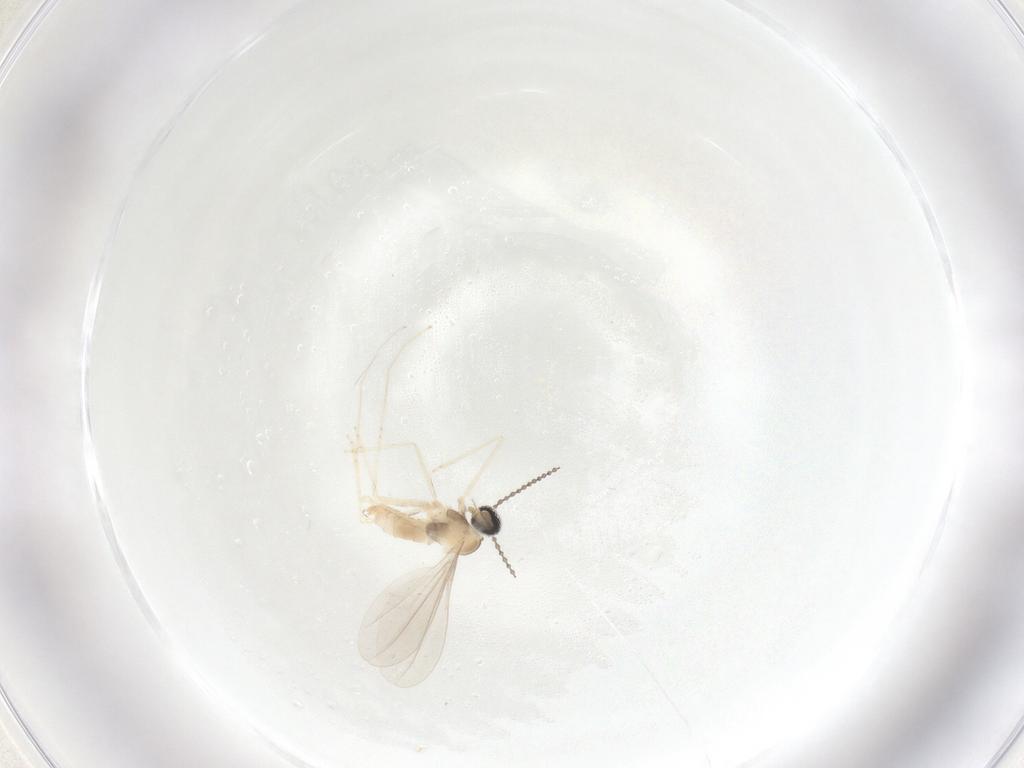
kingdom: Animalia
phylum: Arthropoda
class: Insecta
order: Diptera
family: Cecidomyiidae
